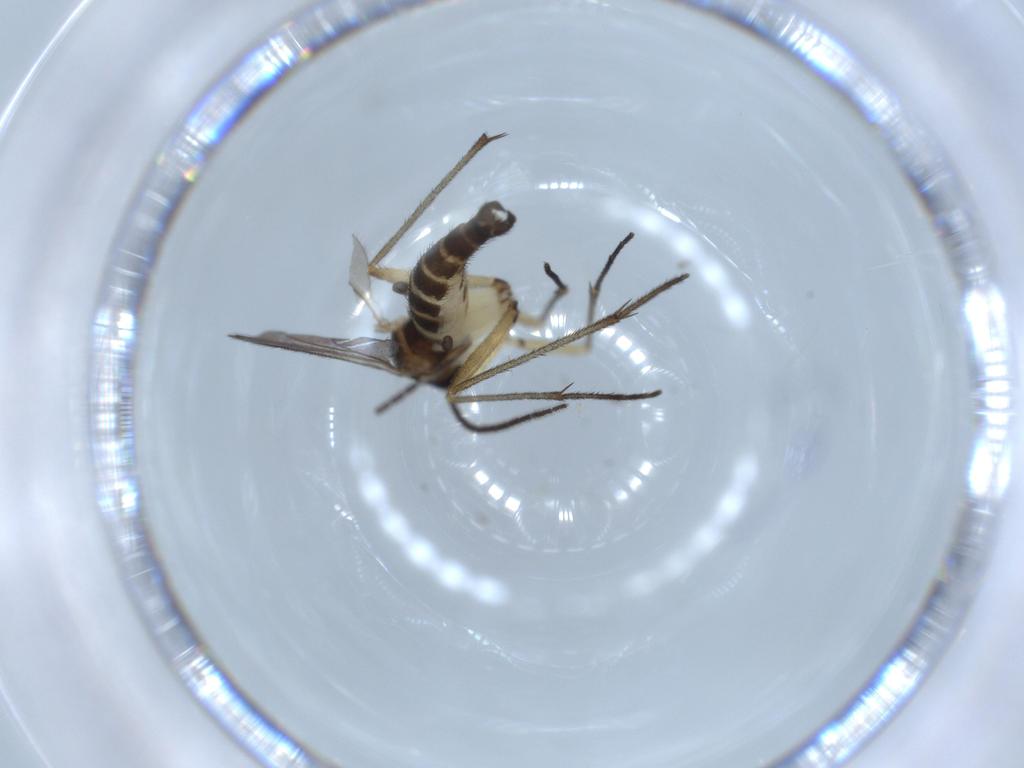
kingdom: Animalia
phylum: Arthropoda
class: Insecta
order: Diptera
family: Sciaridae
